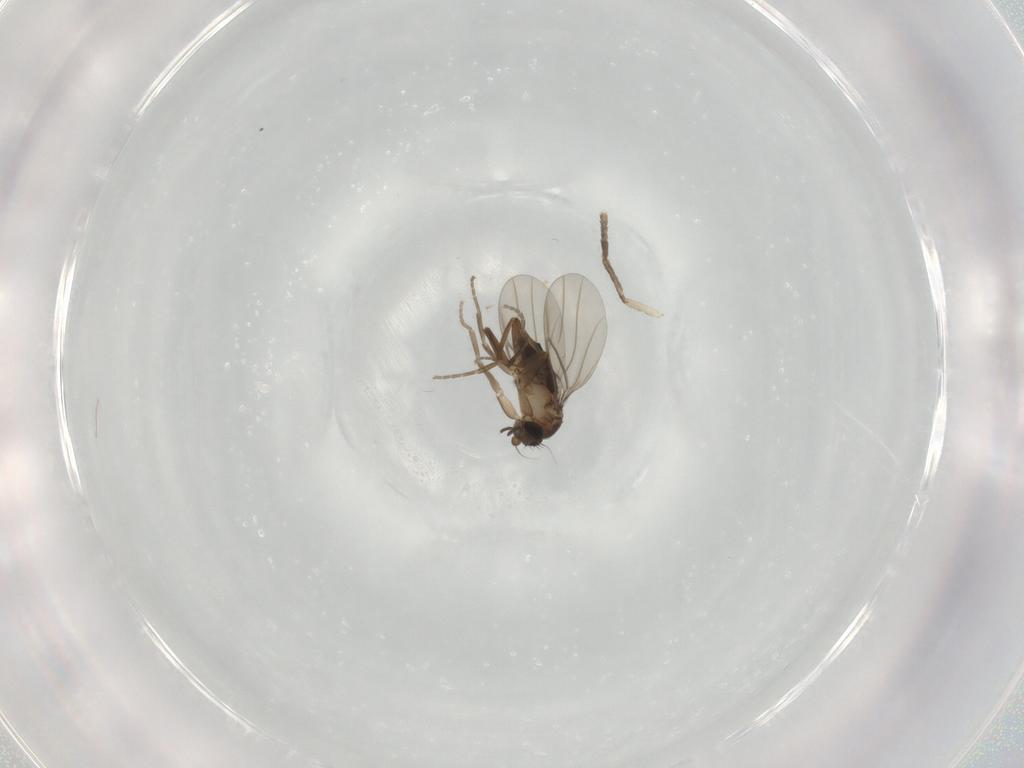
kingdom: Animalia
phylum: Arthropoda
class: Insecta
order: Diptera
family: Psychodidae
